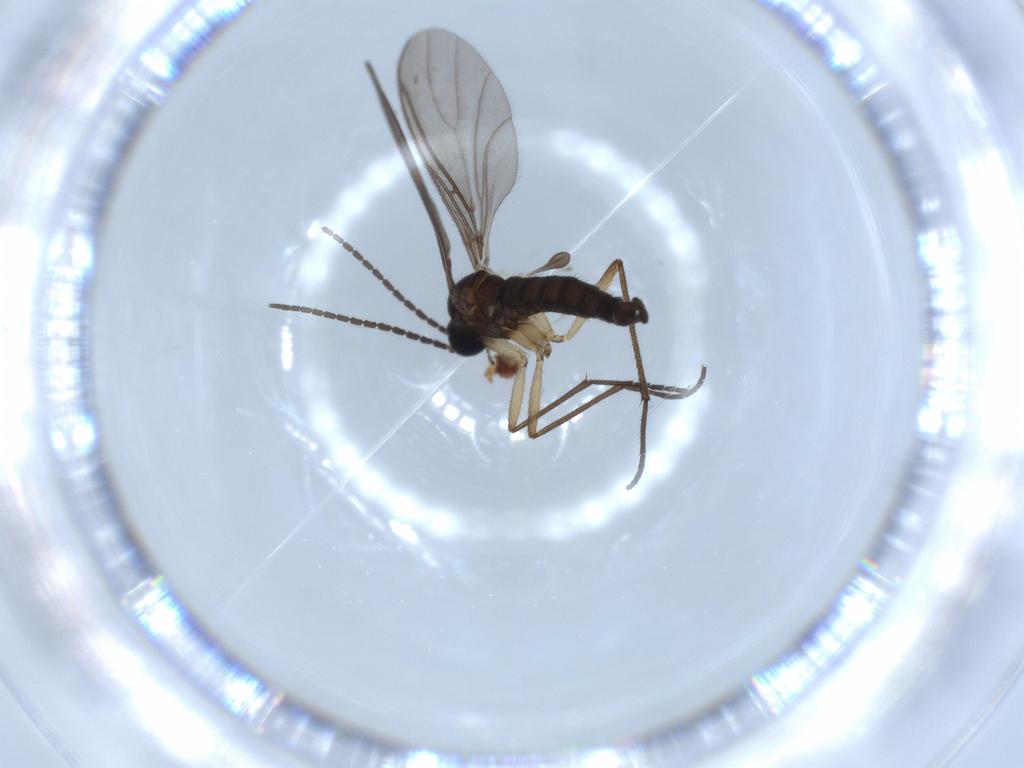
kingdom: Animalia
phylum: Arthropoda
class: Insecta
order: Diptera
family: Sciaridae
